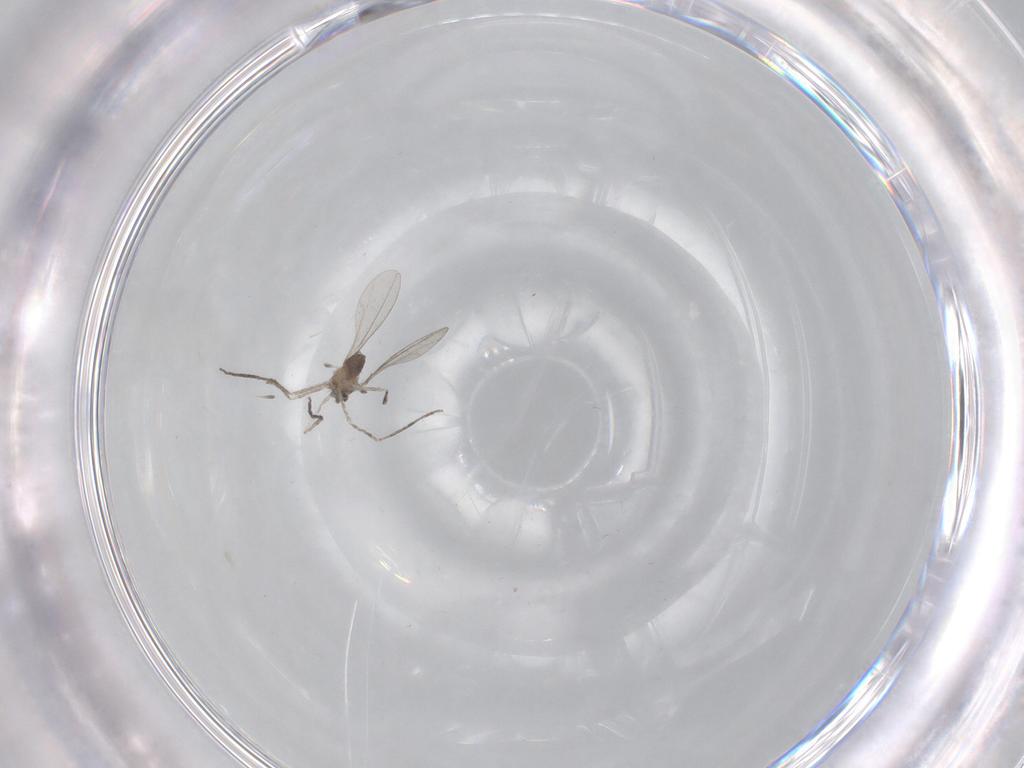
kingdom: Animalia
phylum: Arthropoda
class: Insecta
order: Diptera
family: Cecidomyiidae
